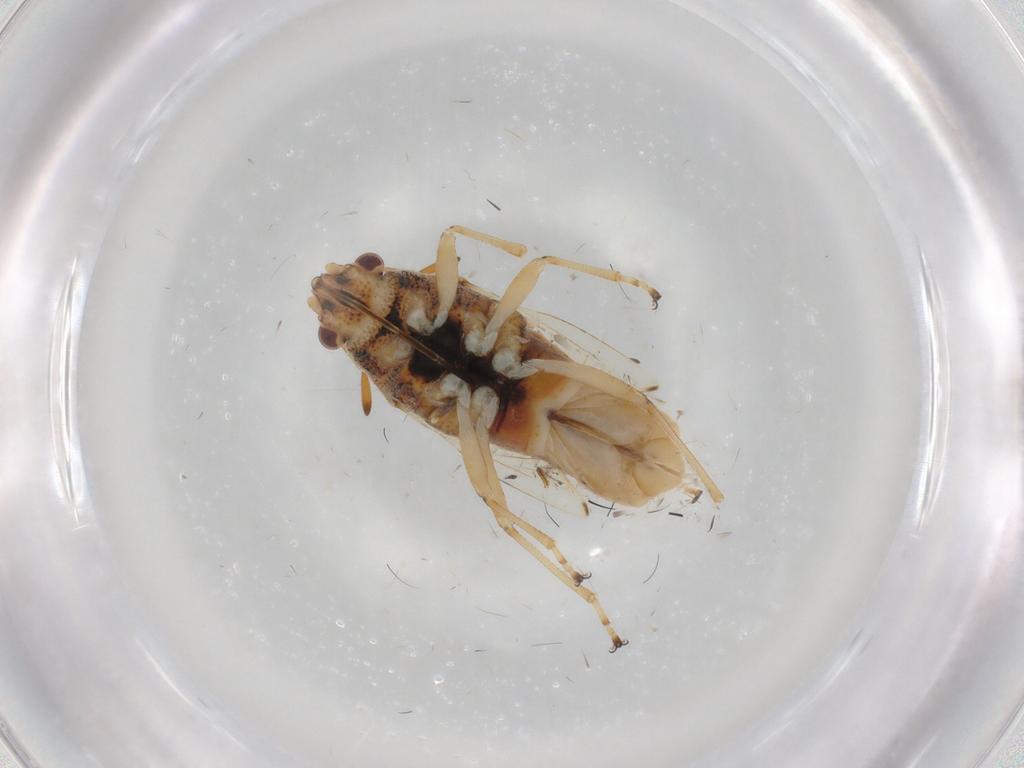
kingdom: Animalia
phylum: Arthropoda
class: Insecta
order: Hemiptera
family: Lygaeidae
